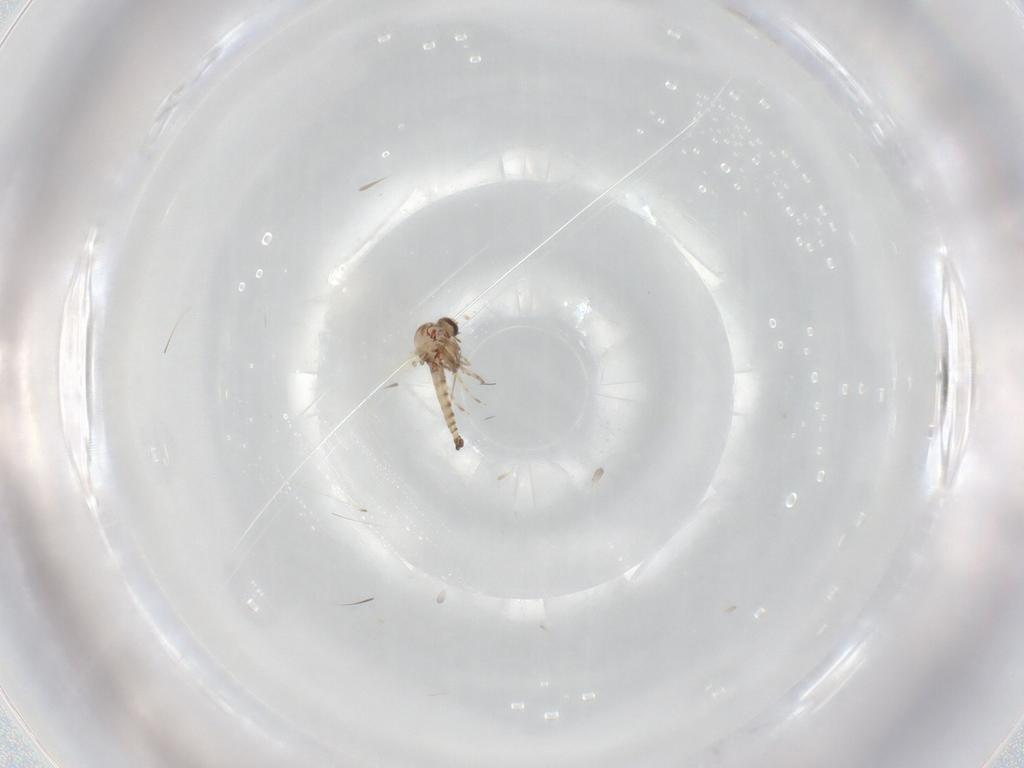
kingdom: Animalia
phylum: Arthropoda
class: Insecta
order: Diptera
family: Ceratopogonidae
